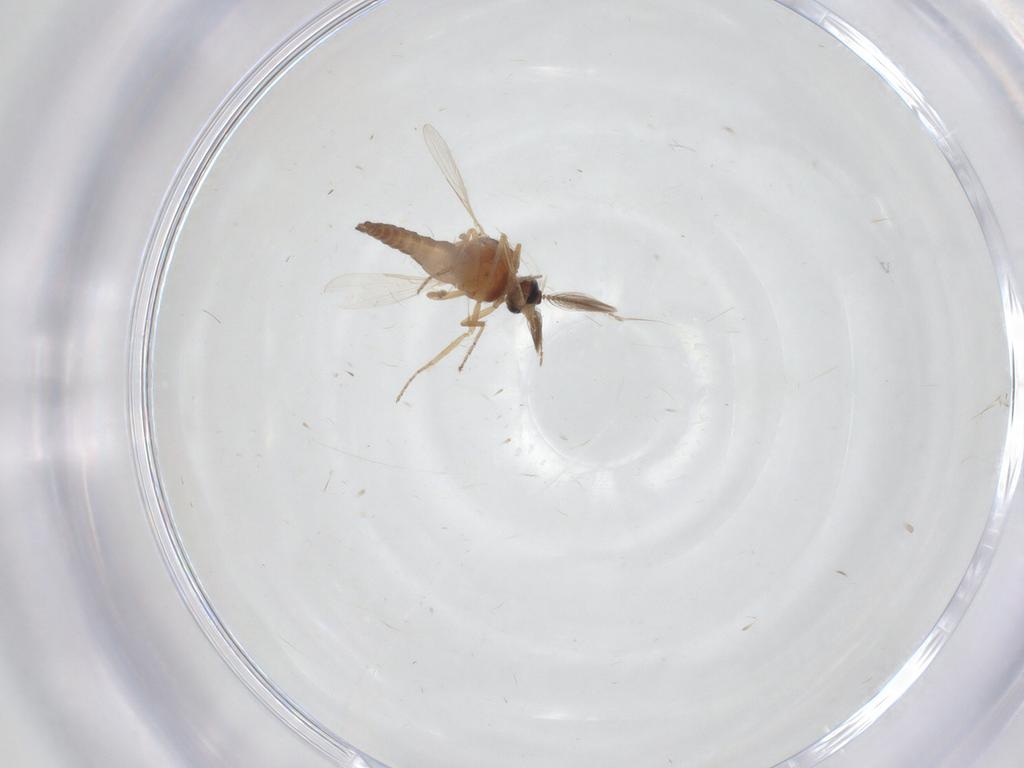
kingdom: Animalia
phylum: Arthropoda
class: Insecta
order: Diptera
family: Ceratopogonidae
